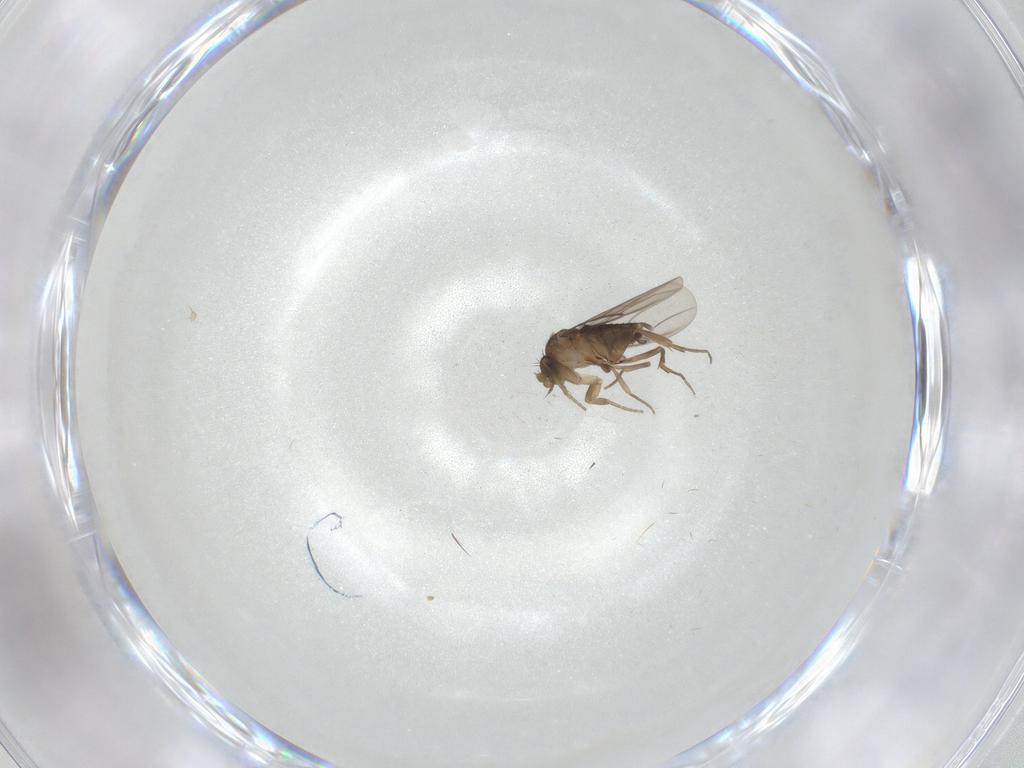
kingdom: Animalia
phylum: Arthropoda
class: Insecta
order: Diptera
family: Phoridae
